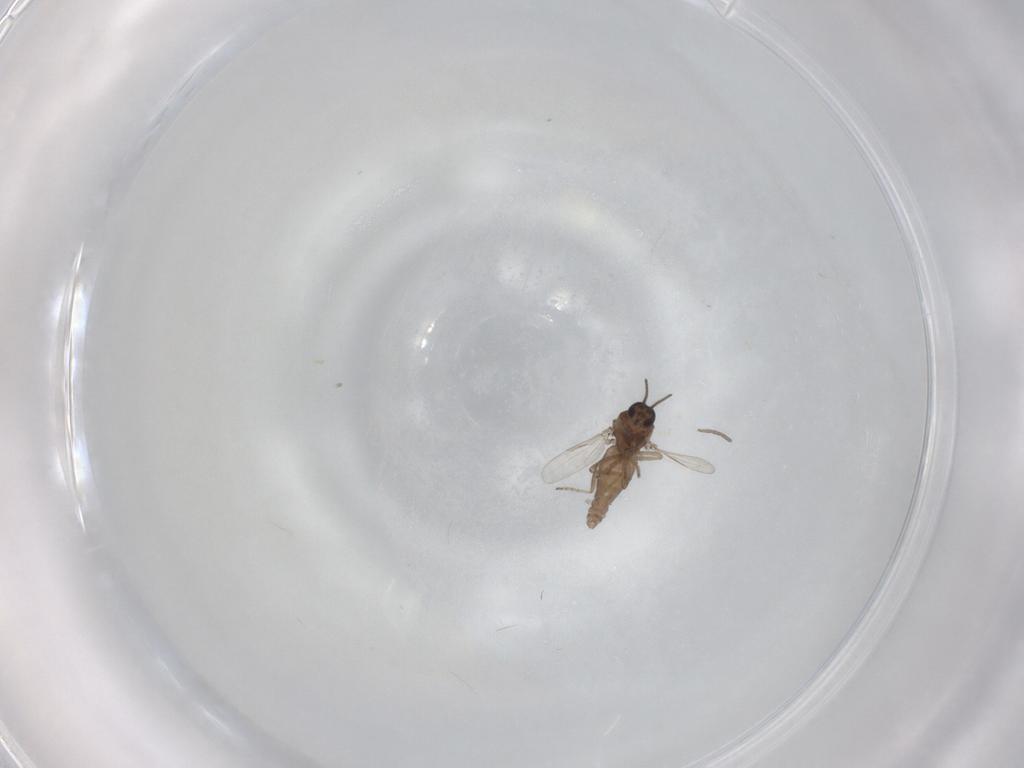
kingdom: Animalia
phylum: Arthropoda
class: Insecta
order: Diptera
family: Ceratopogonidae
